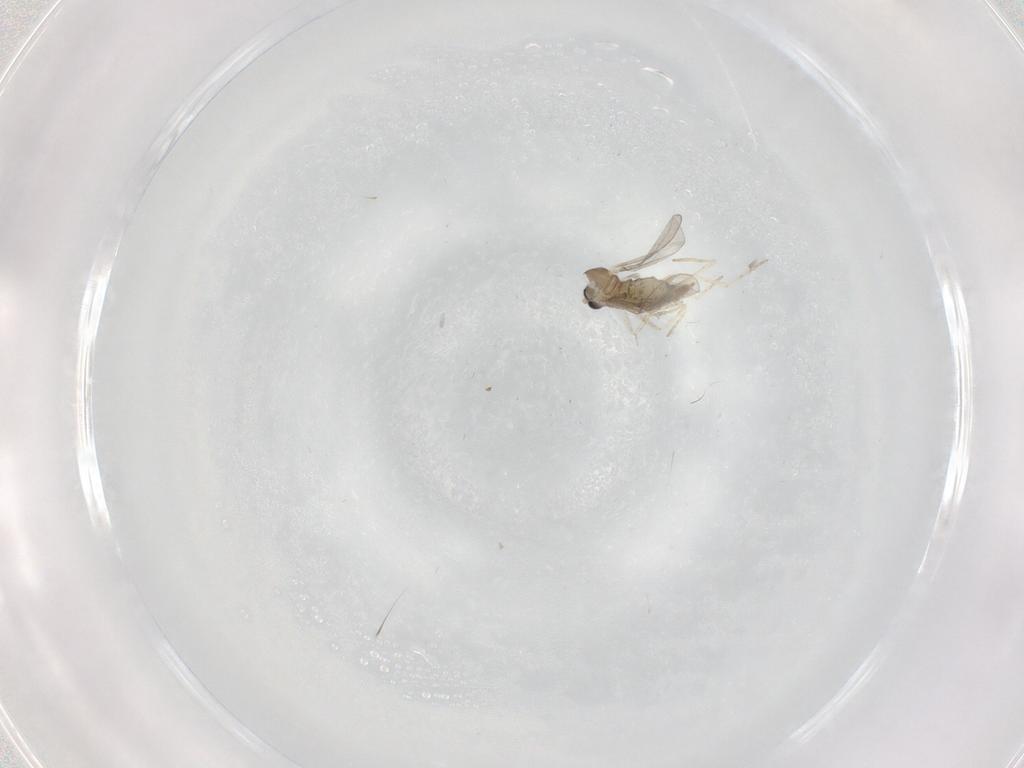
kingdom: Animalia
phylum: Arthropoda
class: Insecta
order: Diptera
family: Cecidomyiidae
